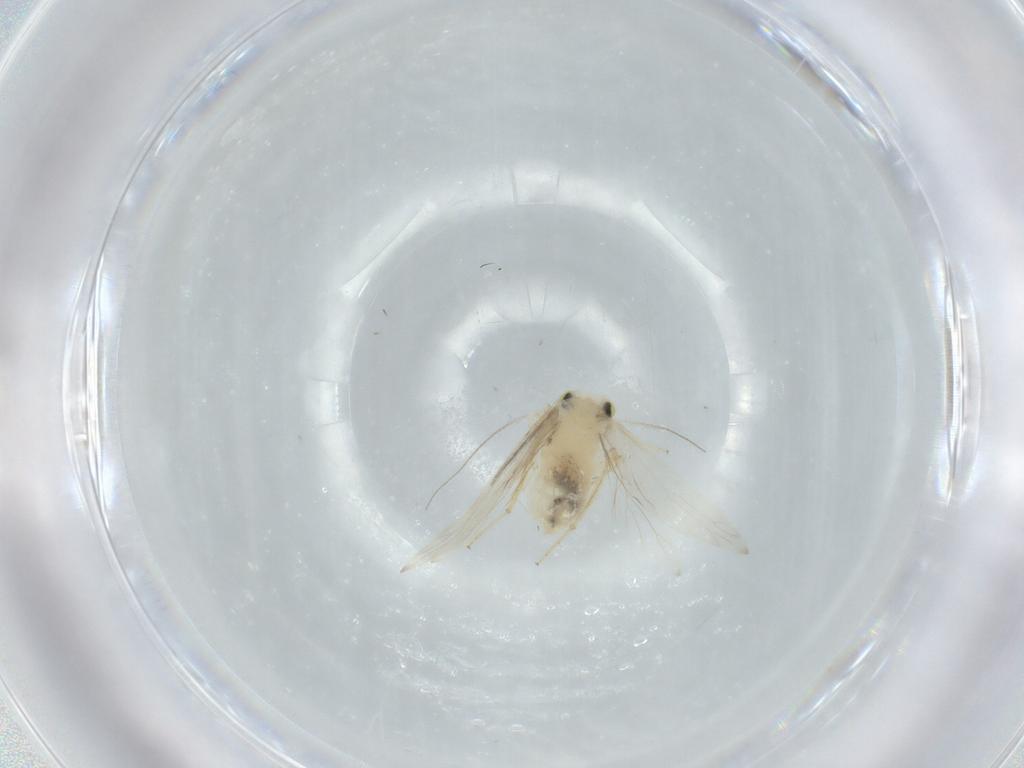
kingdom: Animalia
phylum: Arthropoda
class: Insecta
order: Psocodea
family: Lepidopsocidae
